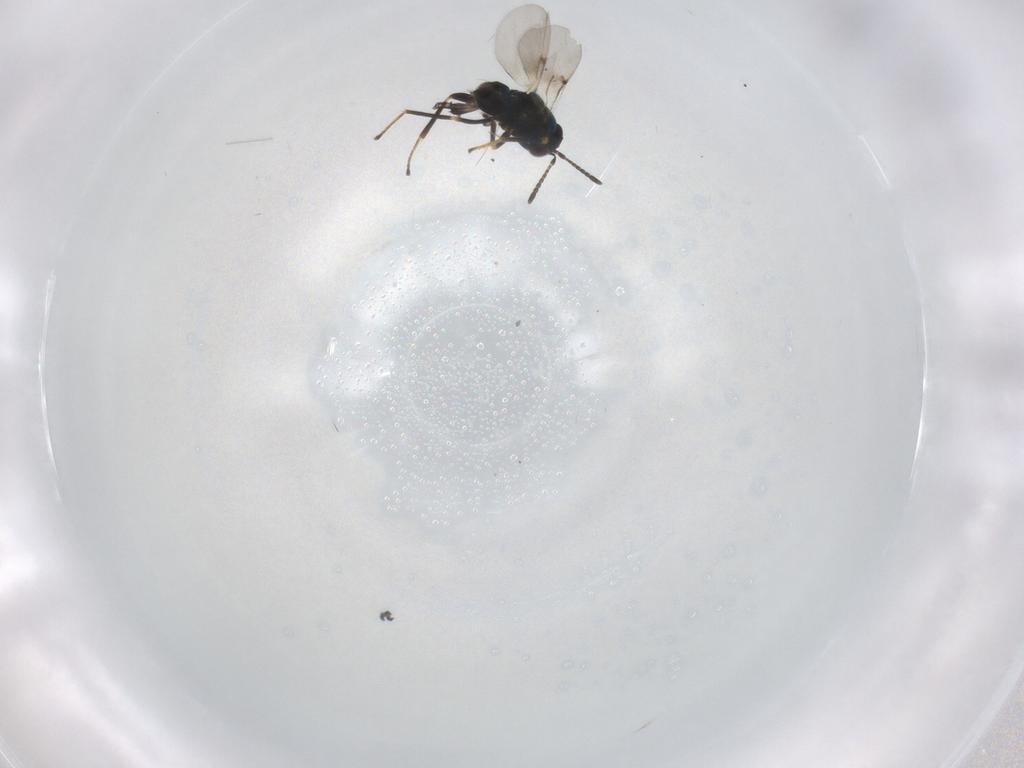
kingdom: Animalia
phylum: Arthropoda
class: Insecta
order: Hymenoptera
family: Encyrtidae
